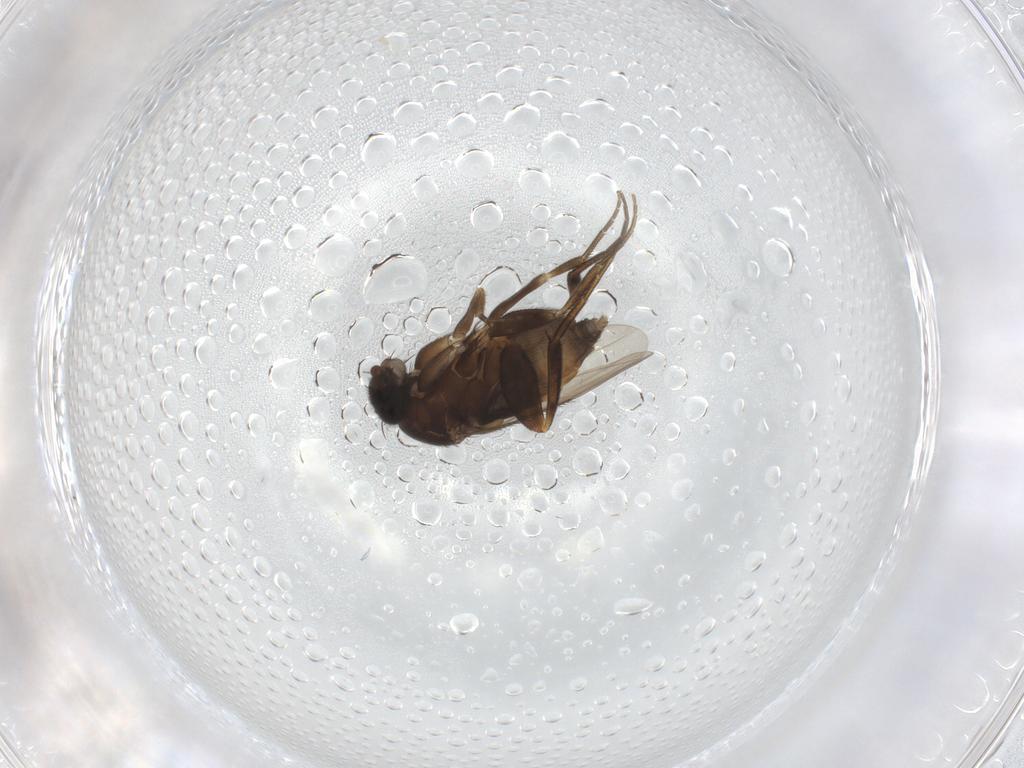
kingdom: Animalia
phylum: Arthropoda
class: Insecta
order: Diptera
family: Phoridae
